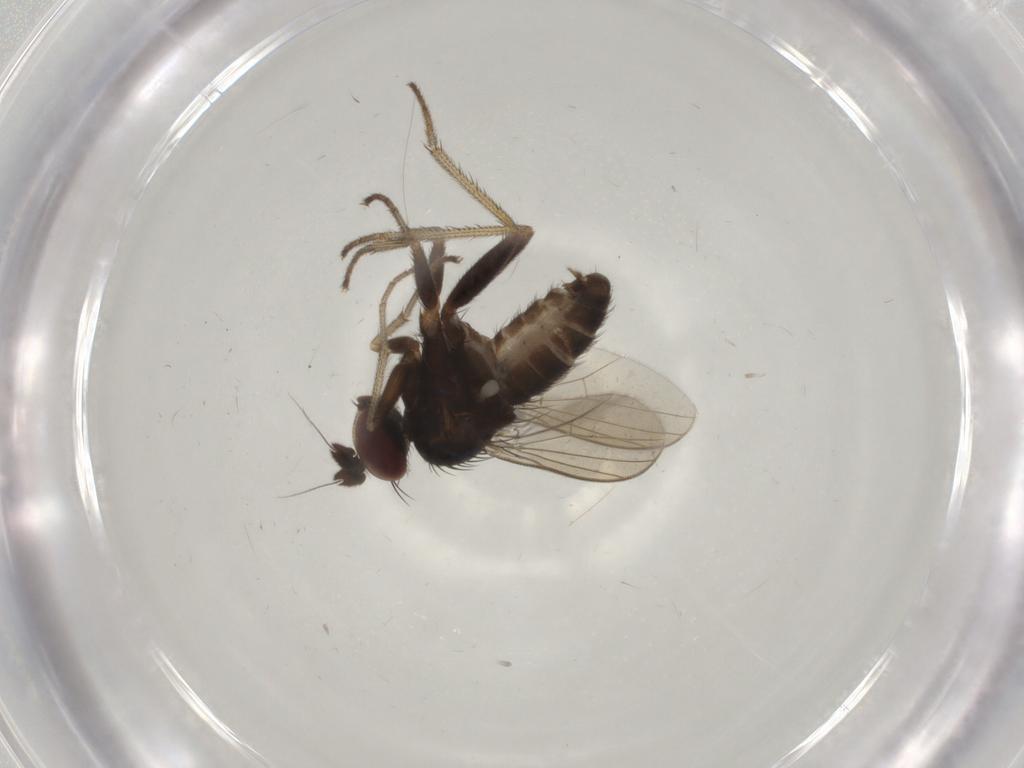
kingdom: Animalia
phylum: Arthropoda
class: Insecta
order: Diptera
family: Dolichopodidae
